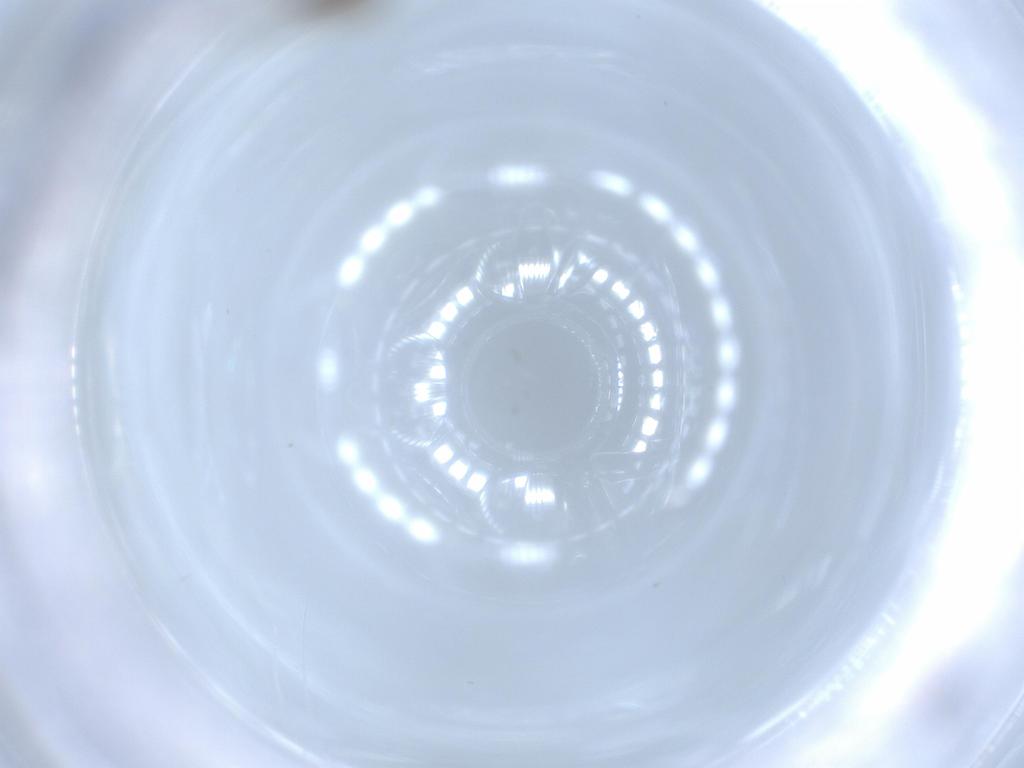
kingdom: Animalia
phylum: Arthropoda
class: Insecta
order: Diptera
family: Cecidomyiidae
